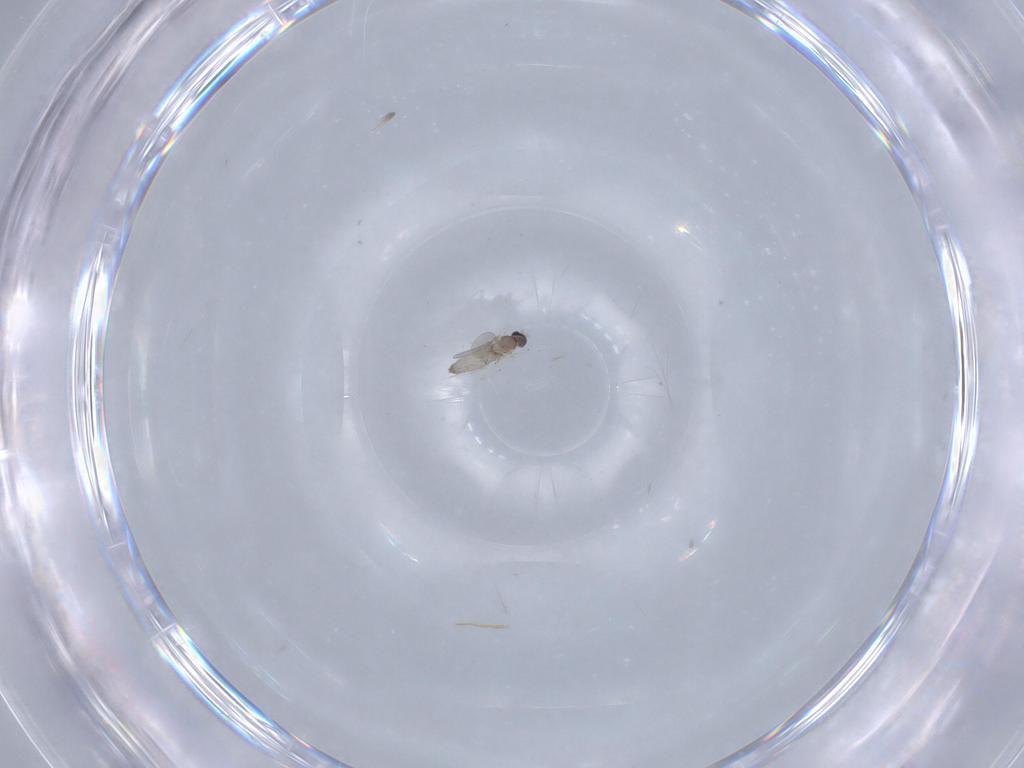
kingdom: Animalia
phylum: Arthropoda
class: Insecta
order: Diptera
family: Cecidomyiidae
